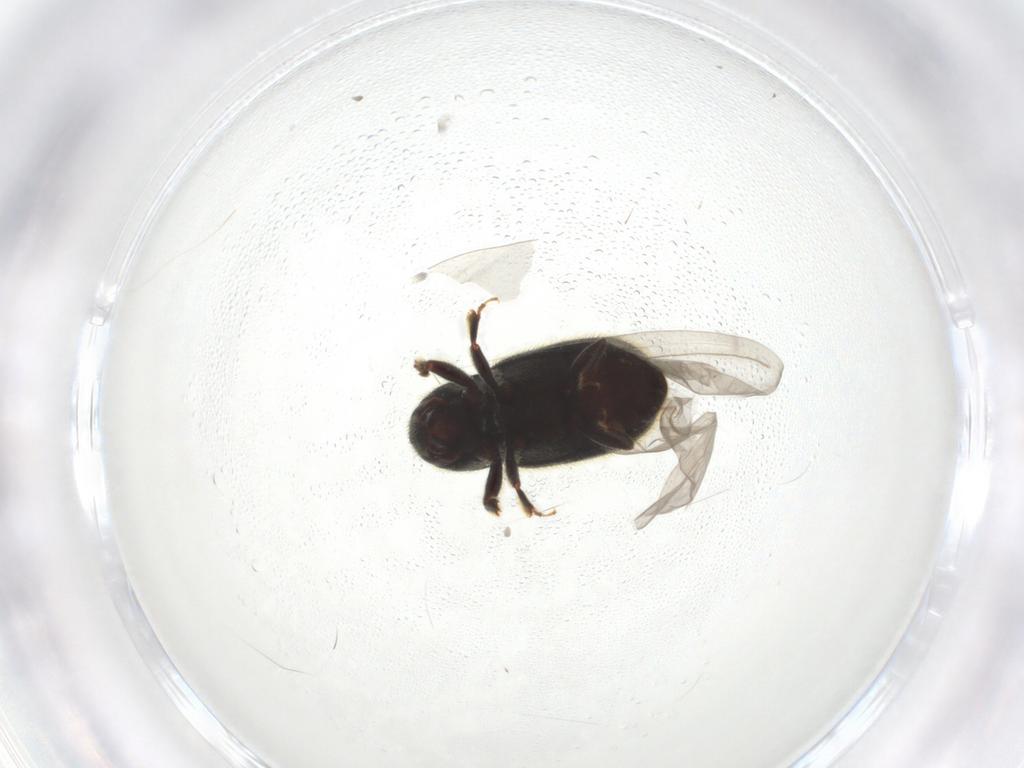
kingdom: Animalia
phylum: Arthropoda
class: Insecta
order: Coleoptera
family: Curculionidae
